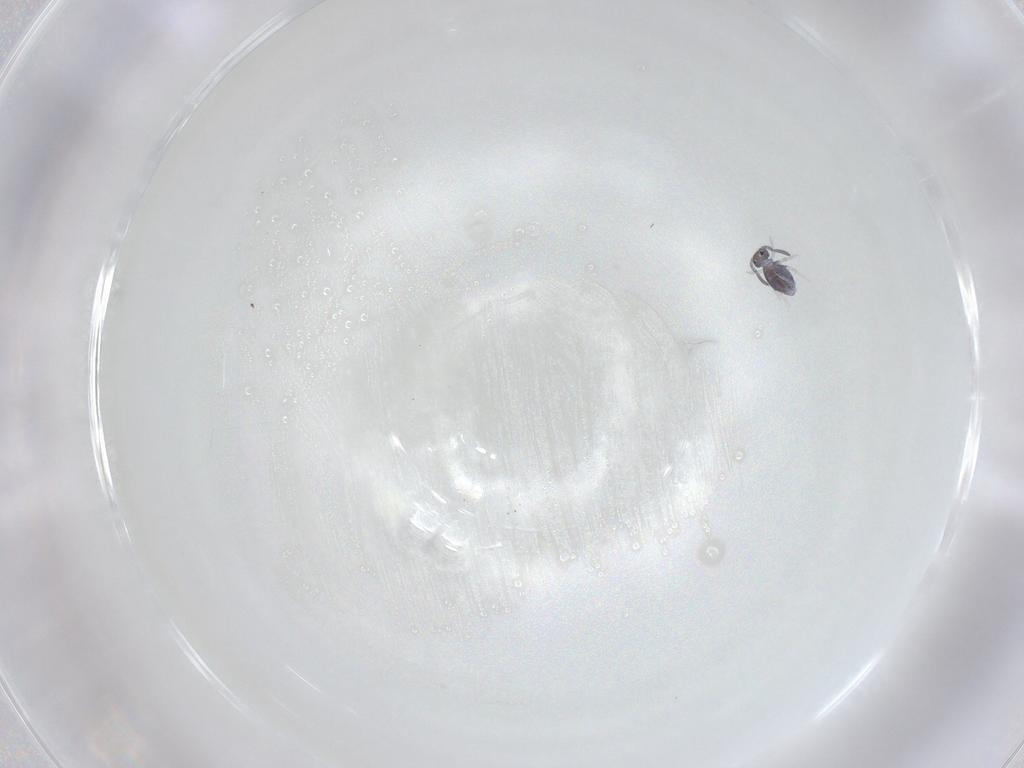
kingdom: Animalia
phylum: Arthropoda
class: Collembola
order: Symphypleona
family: Katiannidae
